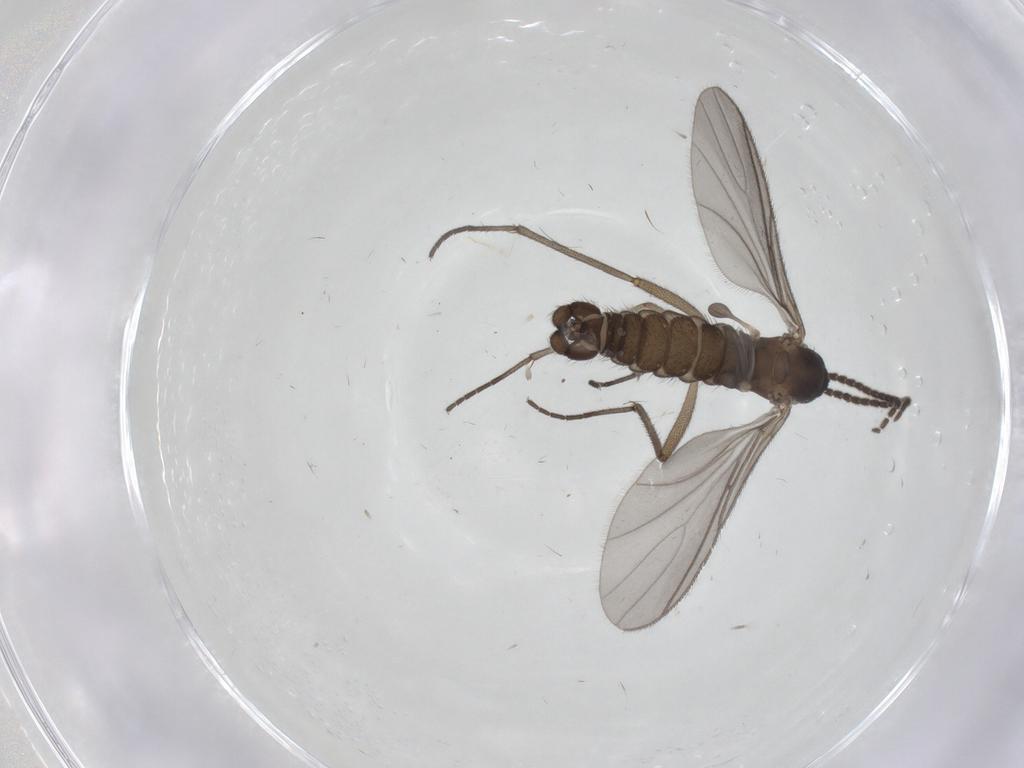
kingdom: Animalia
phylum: Arthropoda
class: Insecta
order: Diptera
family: Sciaridae
